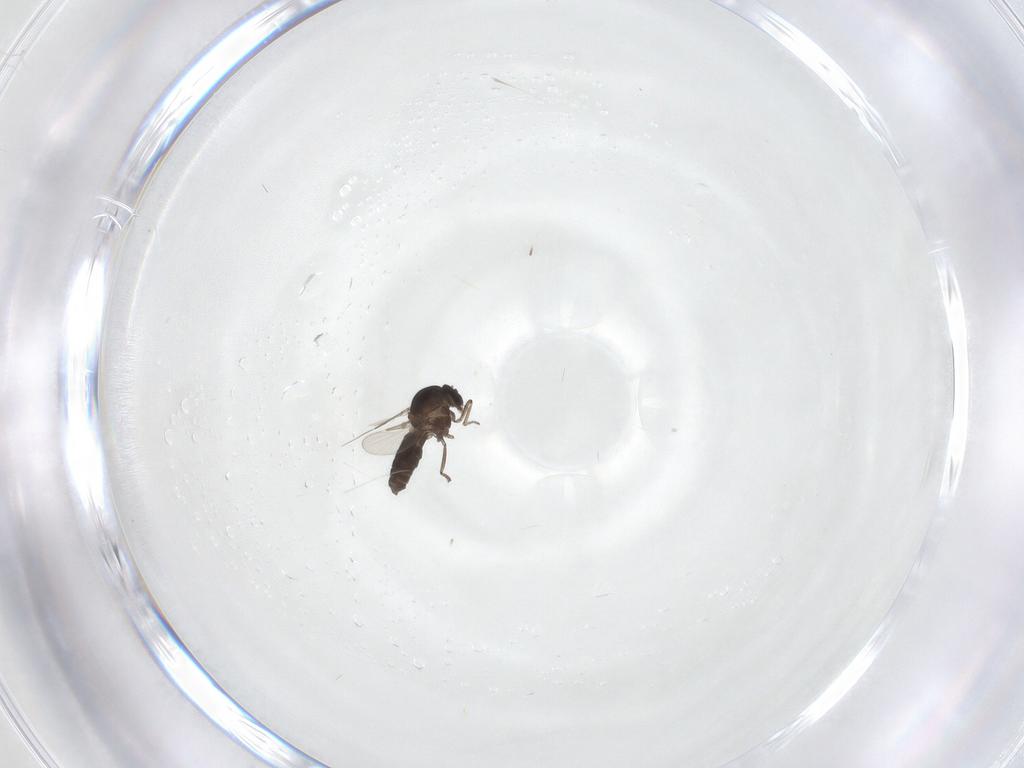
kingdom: Animalia
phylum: Arthropoda
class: Insecta
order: Diptera
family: Ceratopogonidae
